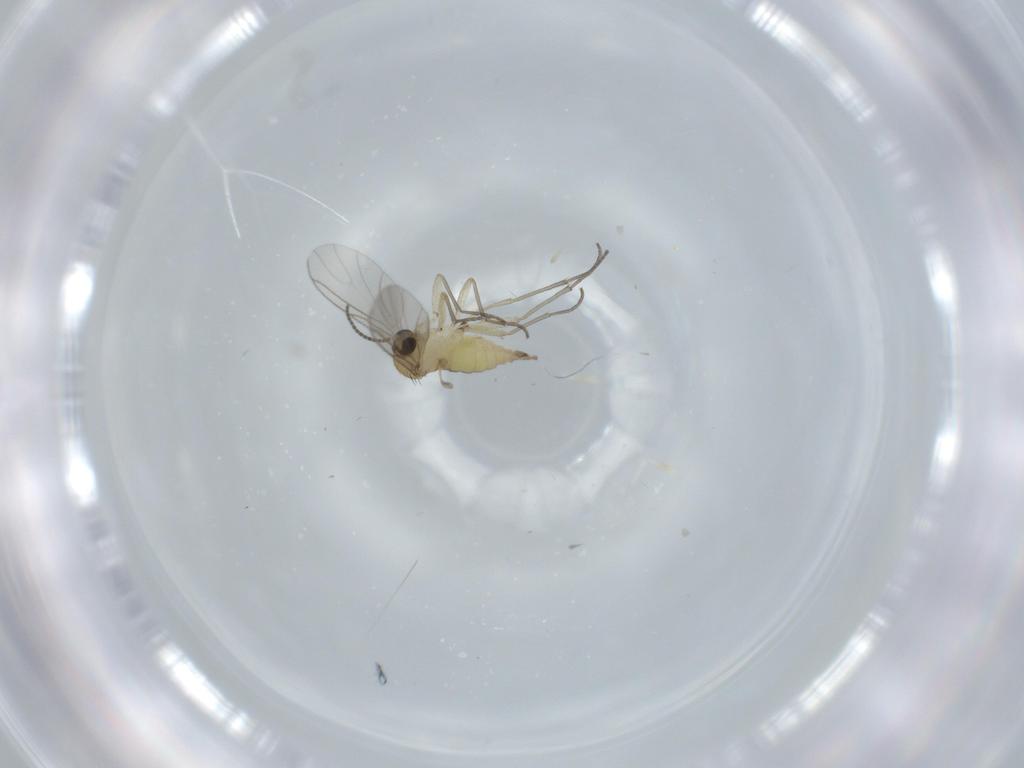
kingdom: Animalia
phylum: Arthropoda
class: Insecta
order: Diptera
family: Sciaridae
